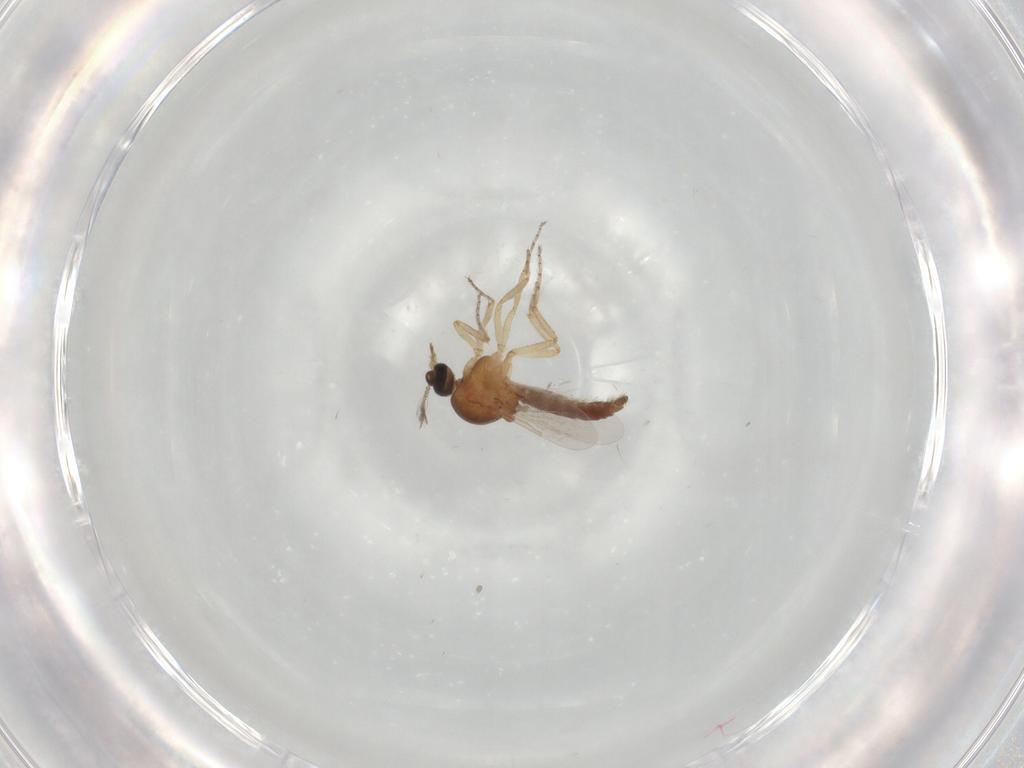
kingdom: Animalia
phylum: Arthropoda
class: Insecta
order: Diptera
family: Ceratopogonidae
